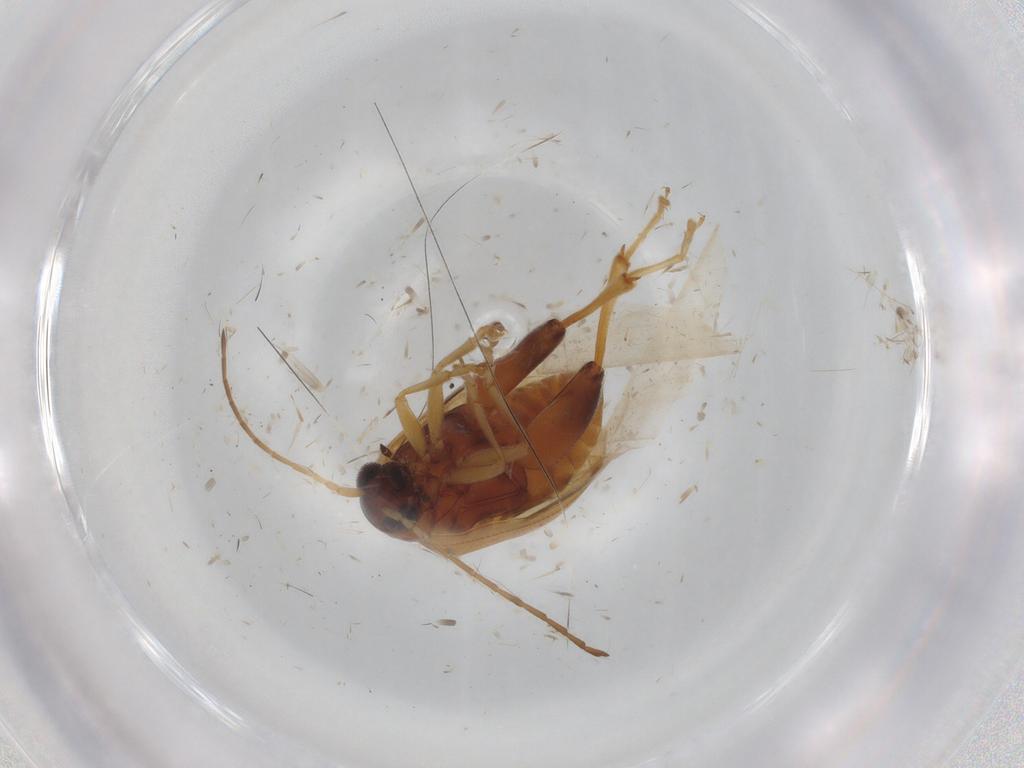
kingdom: Animalia
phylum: Arthropoda
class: Insecta
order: Coleoptera
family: Chrysomelidae
